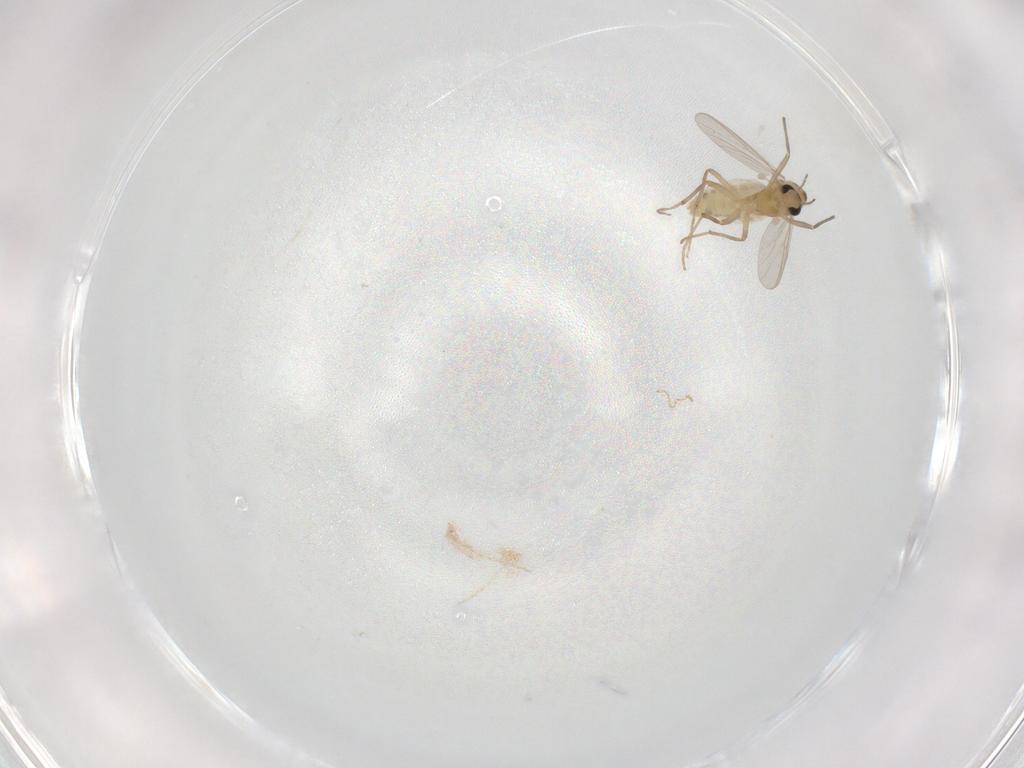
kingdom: Animalia
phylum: Arthropoda
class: Insecta
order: Diptera
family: Chironomidae
